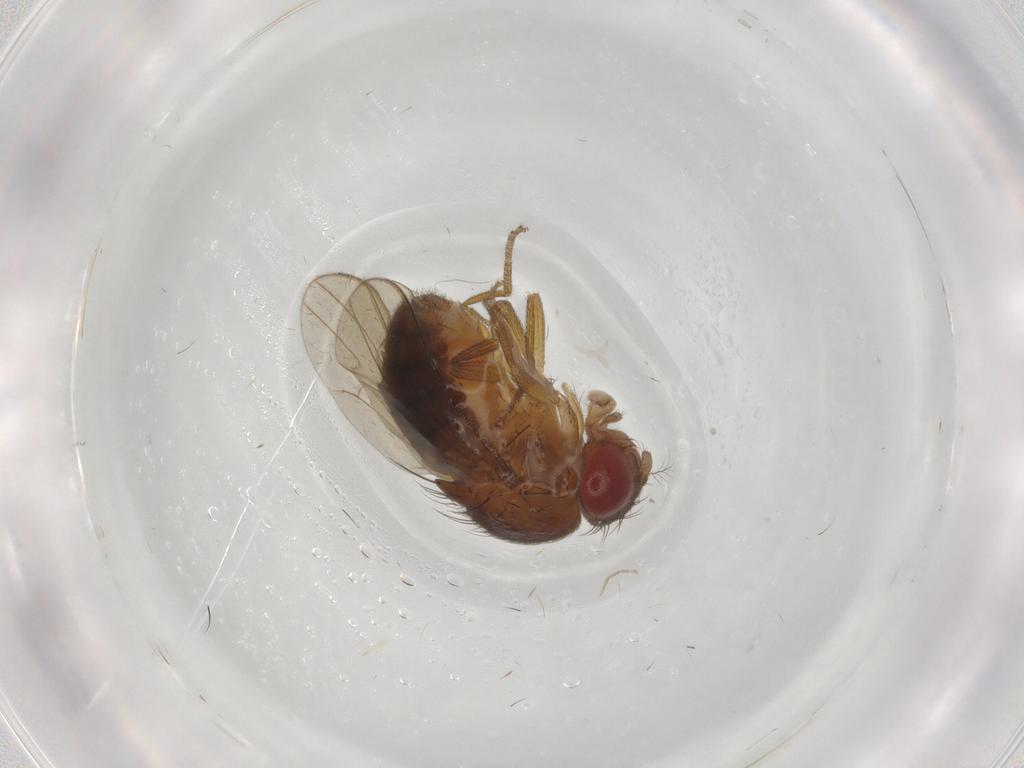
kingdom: Animalia
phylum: Arthropoda
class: Insecta
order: Diptera
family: Drosophilidae
